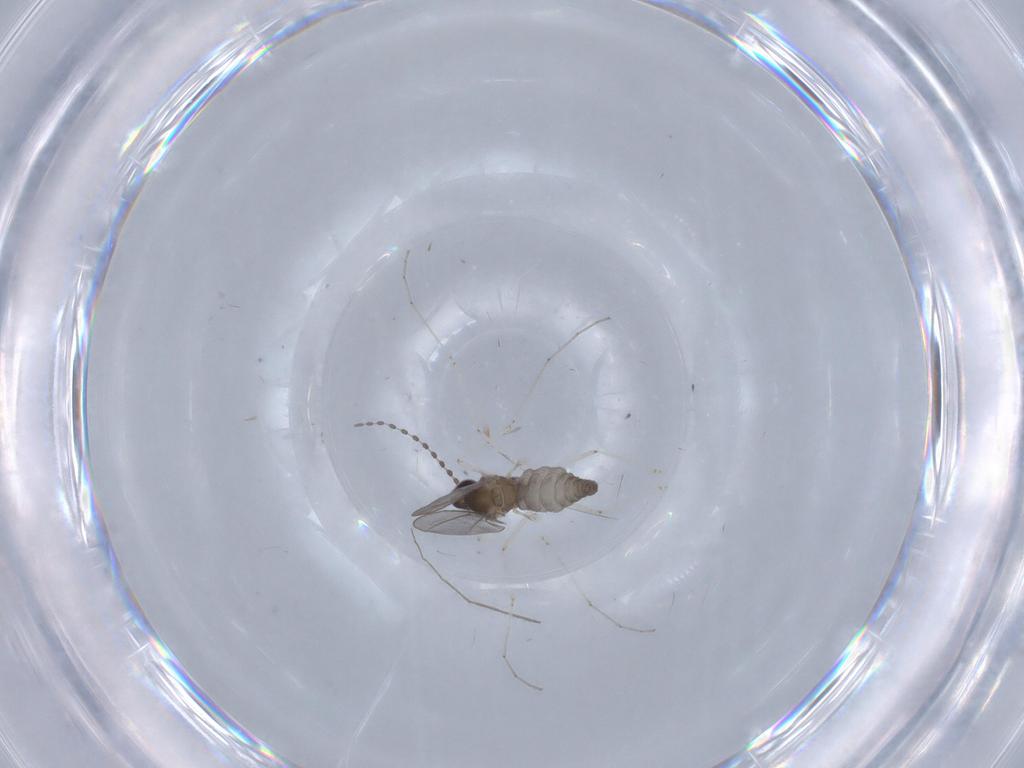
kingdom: Animalia
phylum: Arthropoda
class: Insecta
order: Diptera
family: Cecidomyiidae
